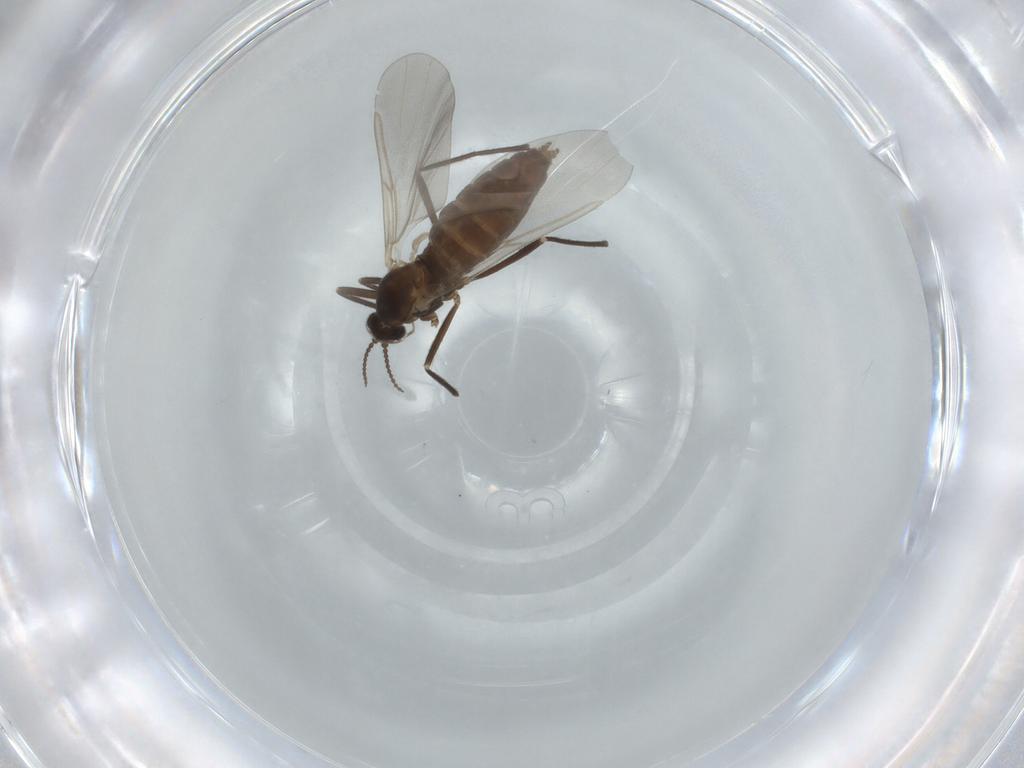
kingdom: Animalia
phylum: Arthropoda
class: Insecta
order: Diptera
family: Cecidomyiidae
